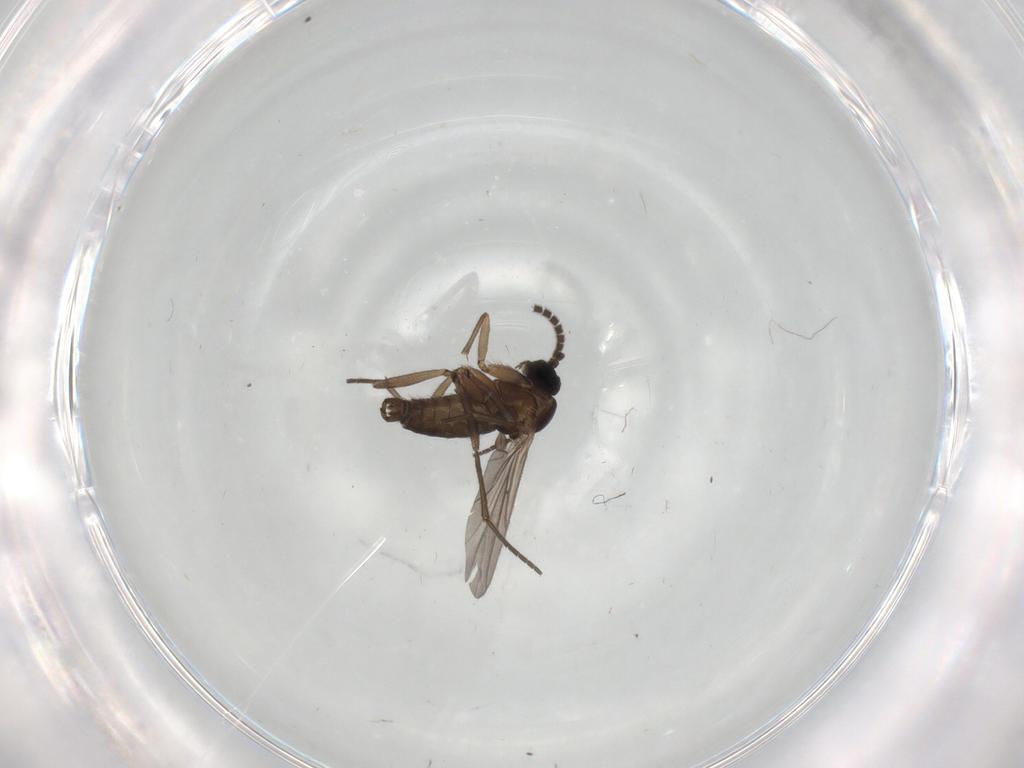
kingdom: Animalia
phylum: Arthropoda
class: Insecta
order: Diptera
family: Sciaridae
